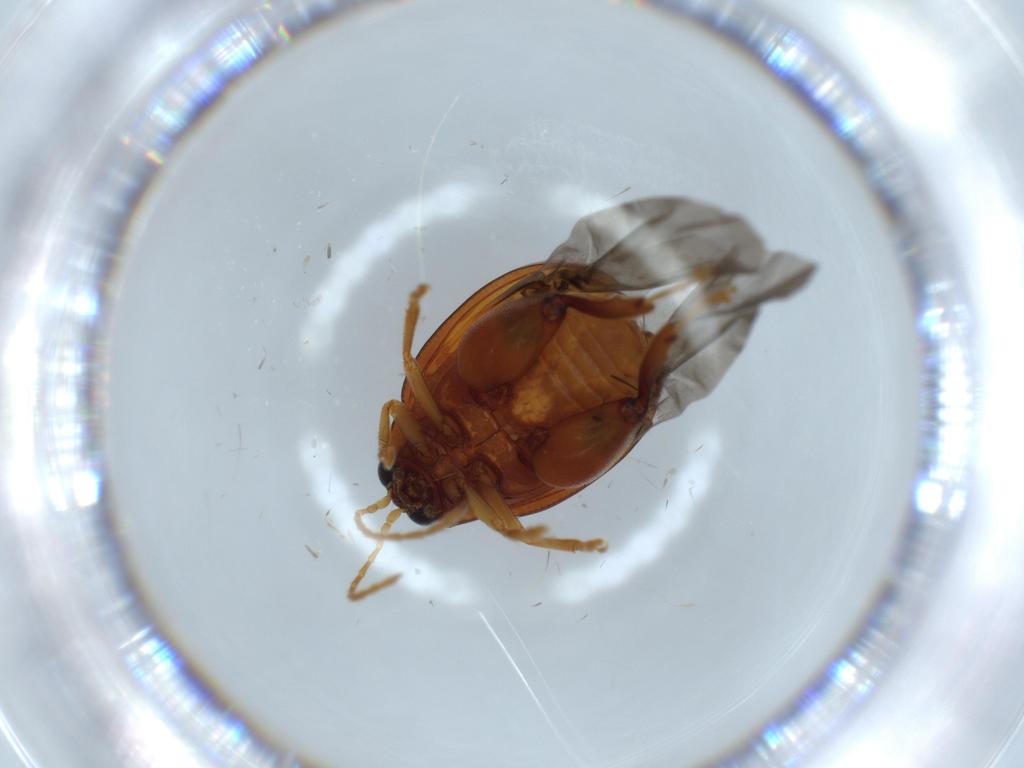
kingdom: Animalia
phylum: Arthropoda
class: Insecta
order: Coleoptera
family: Chrysomelidae
